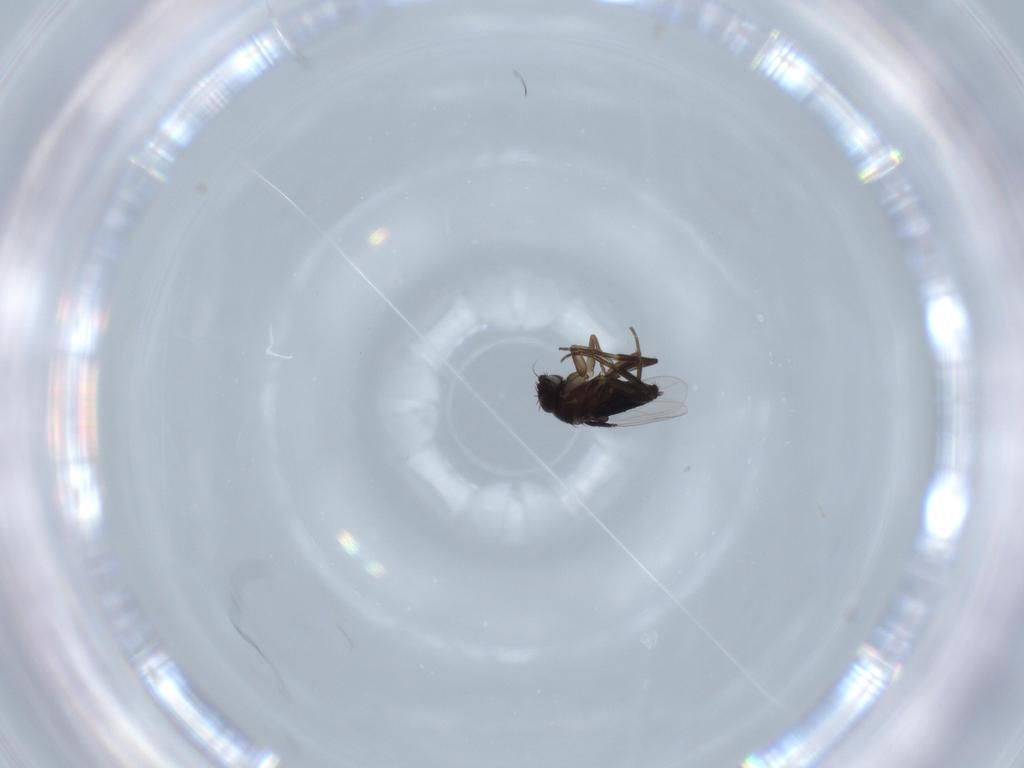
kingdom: Animalia
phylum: Arthropoda
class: Insecta
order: Diptera
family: Phoridae
